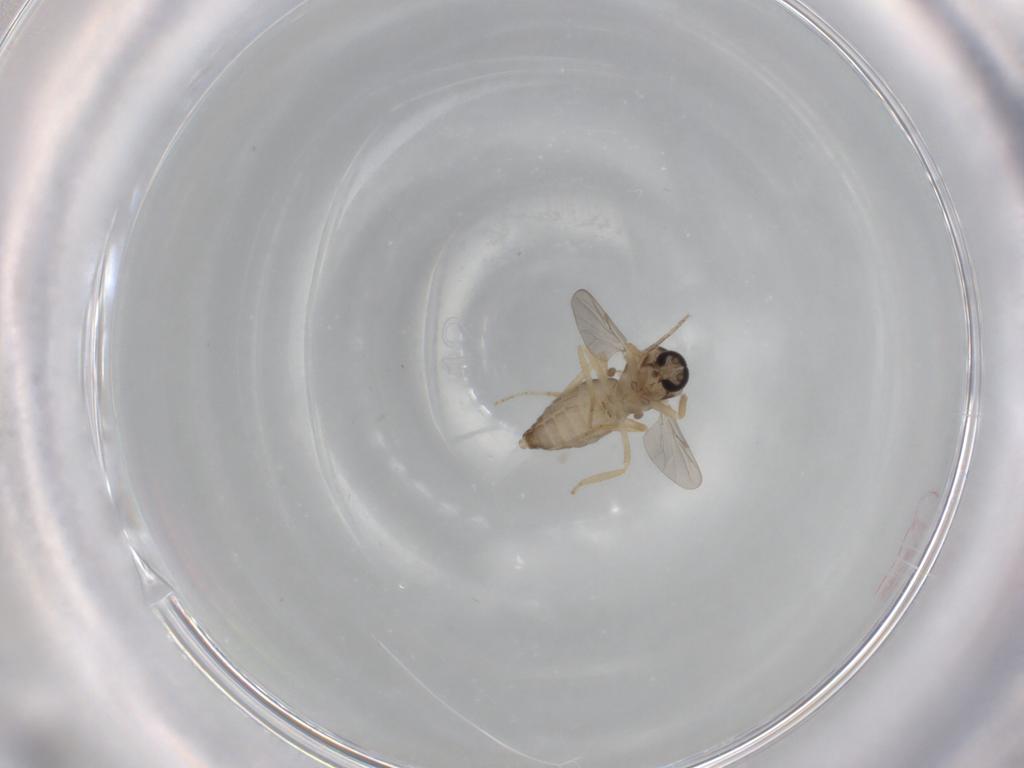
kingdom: Animalia
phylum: Arthropoda
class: Insecta
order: Diptera
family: Ceratopogonidae
